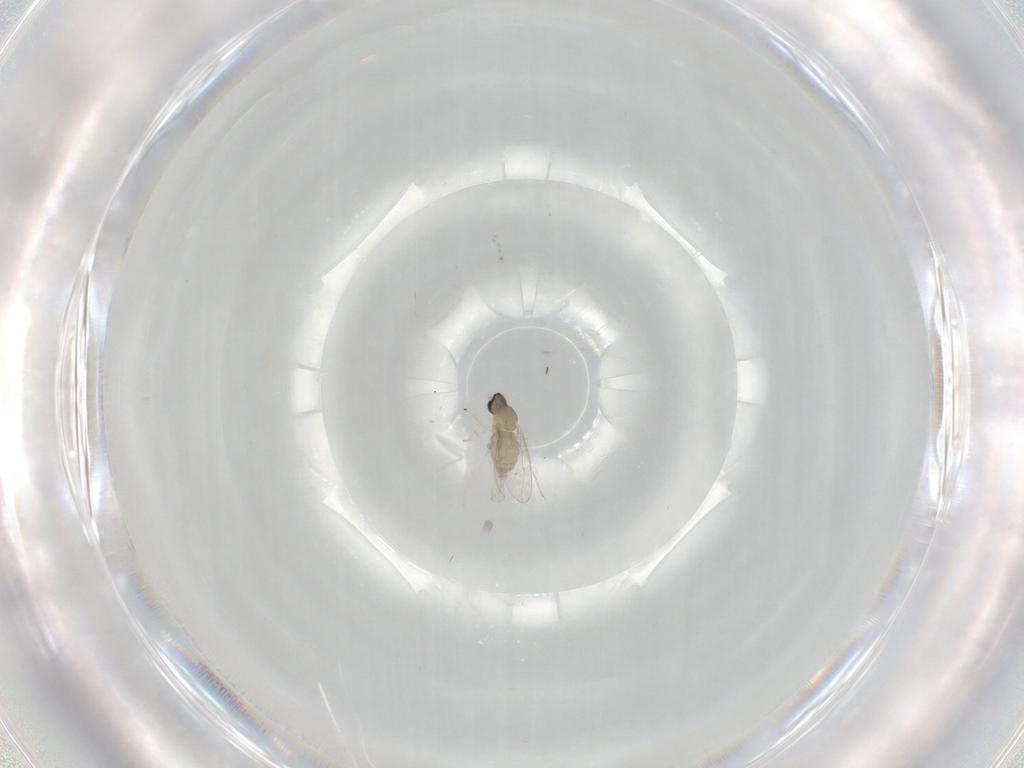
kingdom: Animalia
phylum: Arthropoda
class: Insecta
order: Diptera
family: Cecidomyiidae
